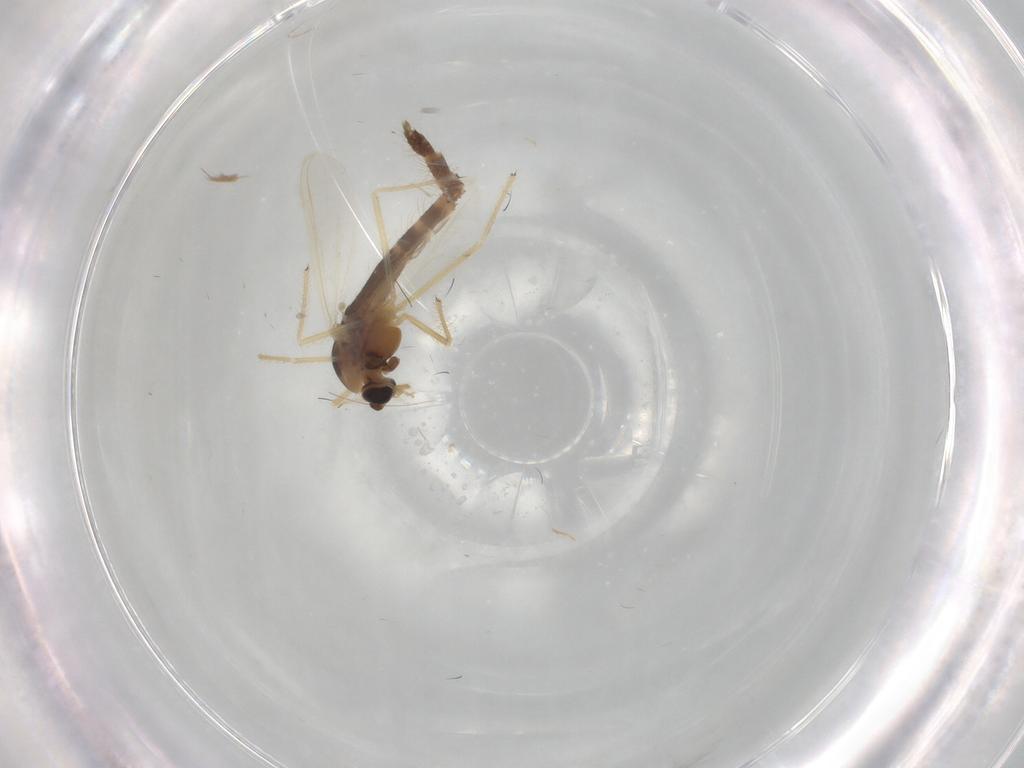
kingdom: Animalia
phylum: Arthropoda
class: Insecta
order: Diptera
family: Chironomidae
